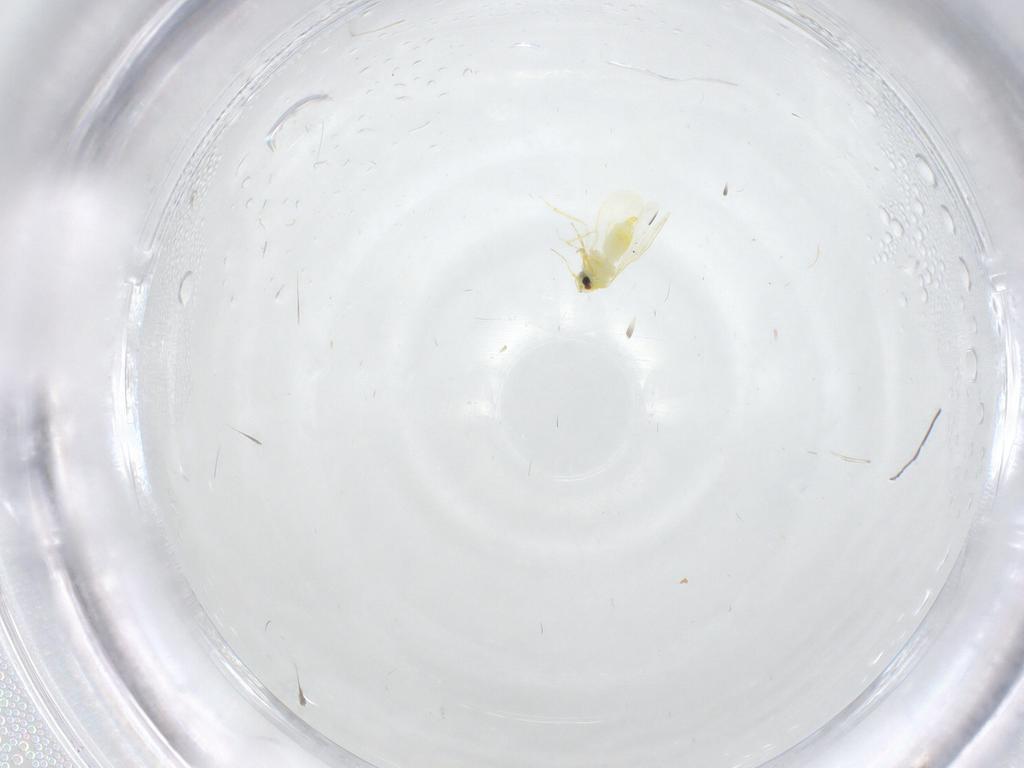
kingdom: Animalia
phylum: Arthropoda
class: Insecta
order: Hemiptera
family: Aleyrodidae
